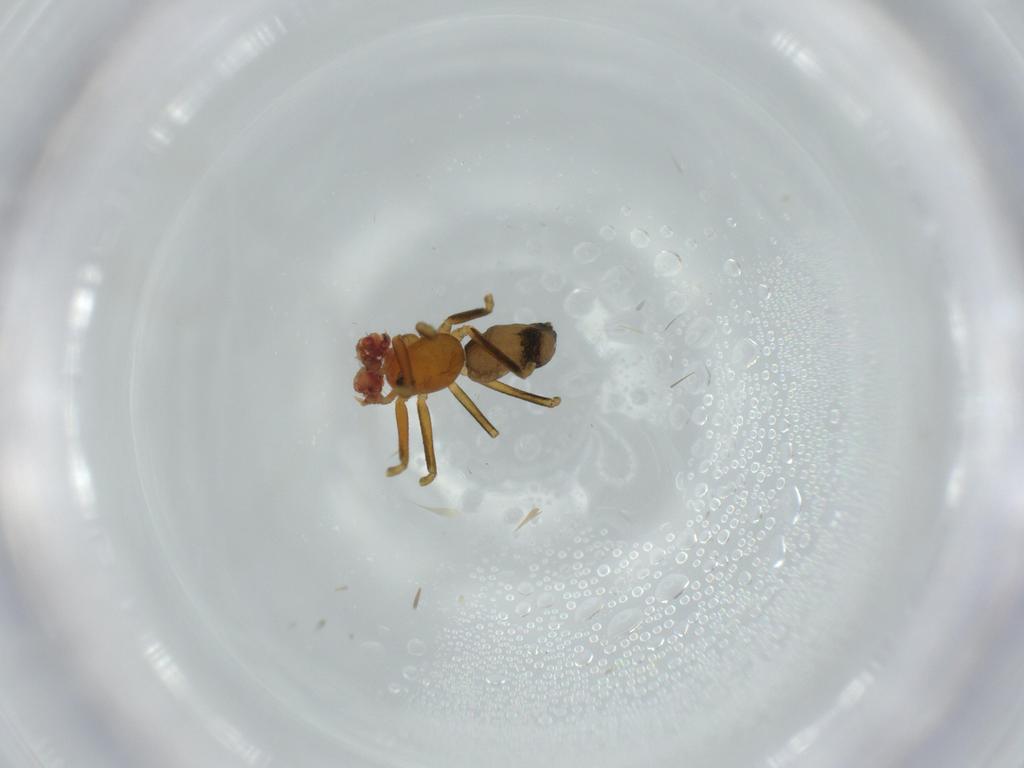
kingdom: Animalia
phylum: Arthropoda
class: Arachnida
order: Araneae
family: Linyphiidae
